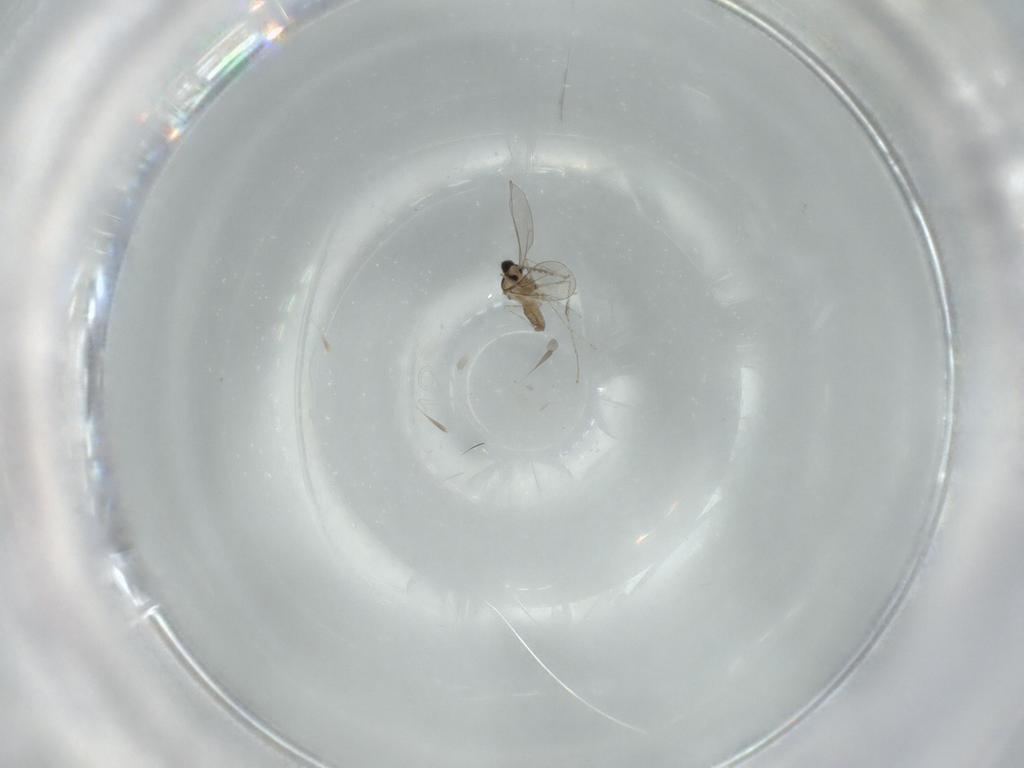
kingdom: Animalia
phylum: Arthropoda
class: Insecta
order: Diptera
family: Cecidomyiidae
